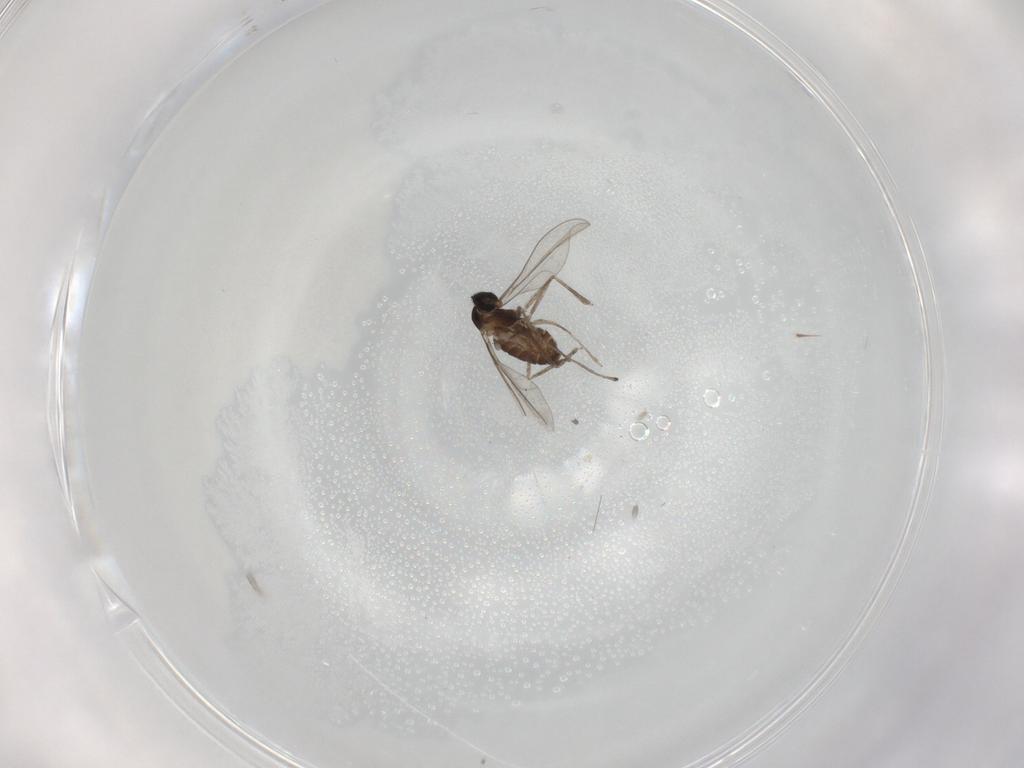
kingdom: Animalia
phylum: Arthropoda
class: Insecta
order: Diptera
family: Cecidomyiidae
